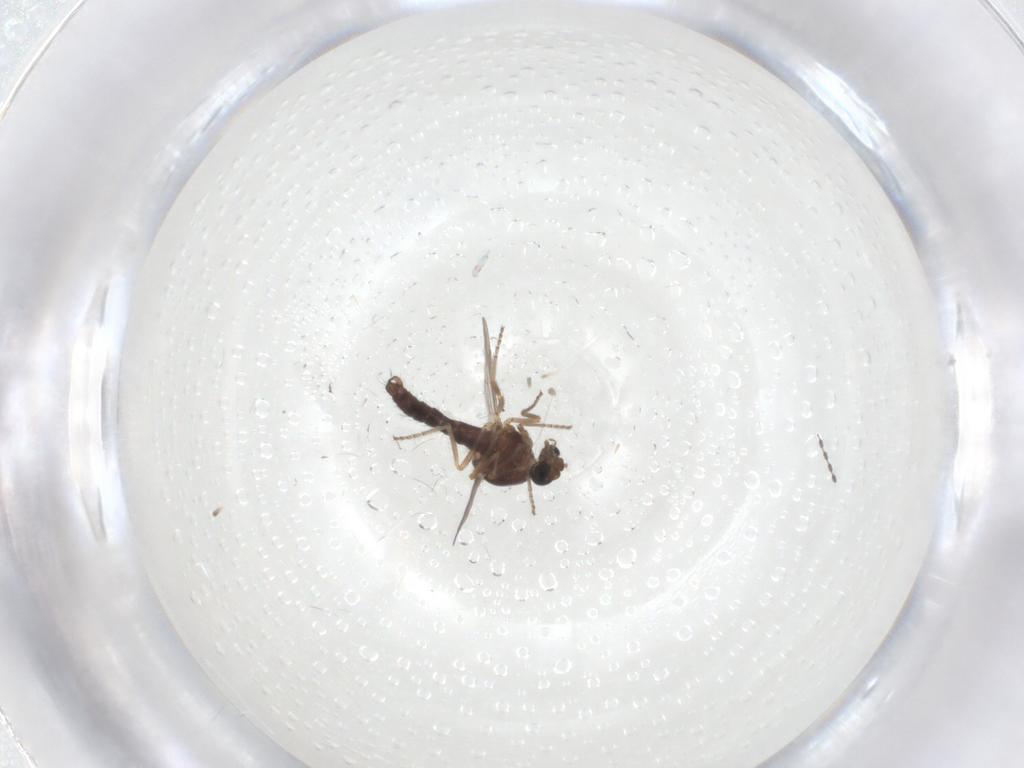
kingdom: Animalia
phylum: Arthropoda
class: Insecta
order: Diptera
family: Ceratopogonidae
